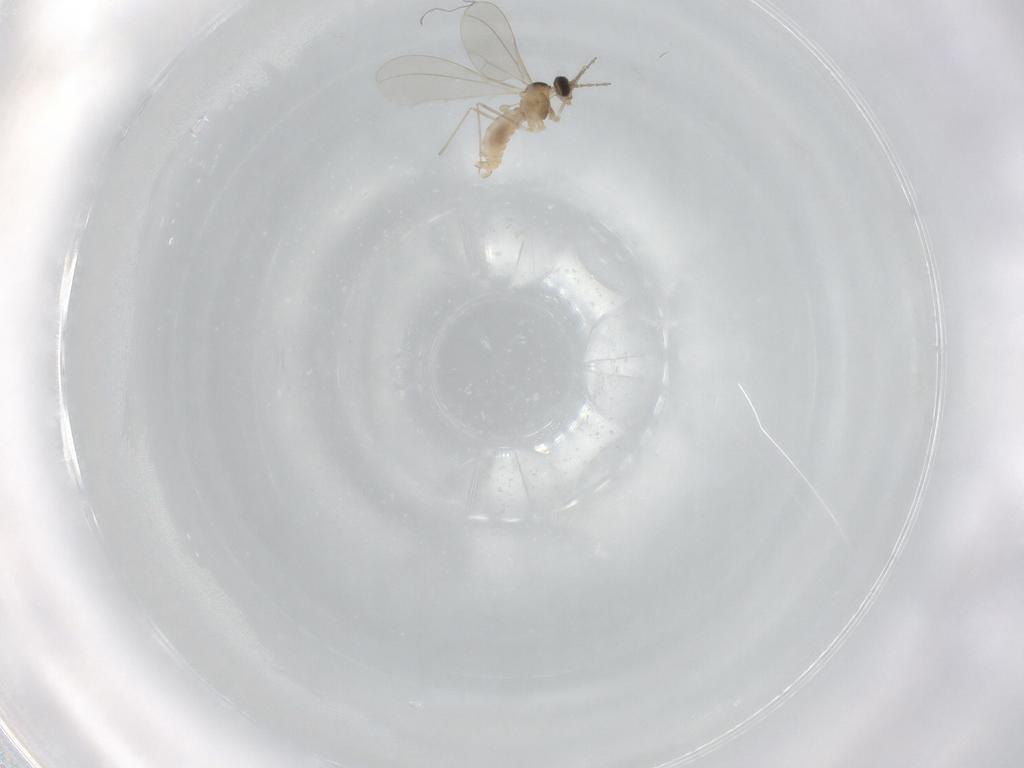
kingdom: Animalia
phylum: Arthropoda
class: Insecta
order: Diptera
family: Cecidomyiidae
